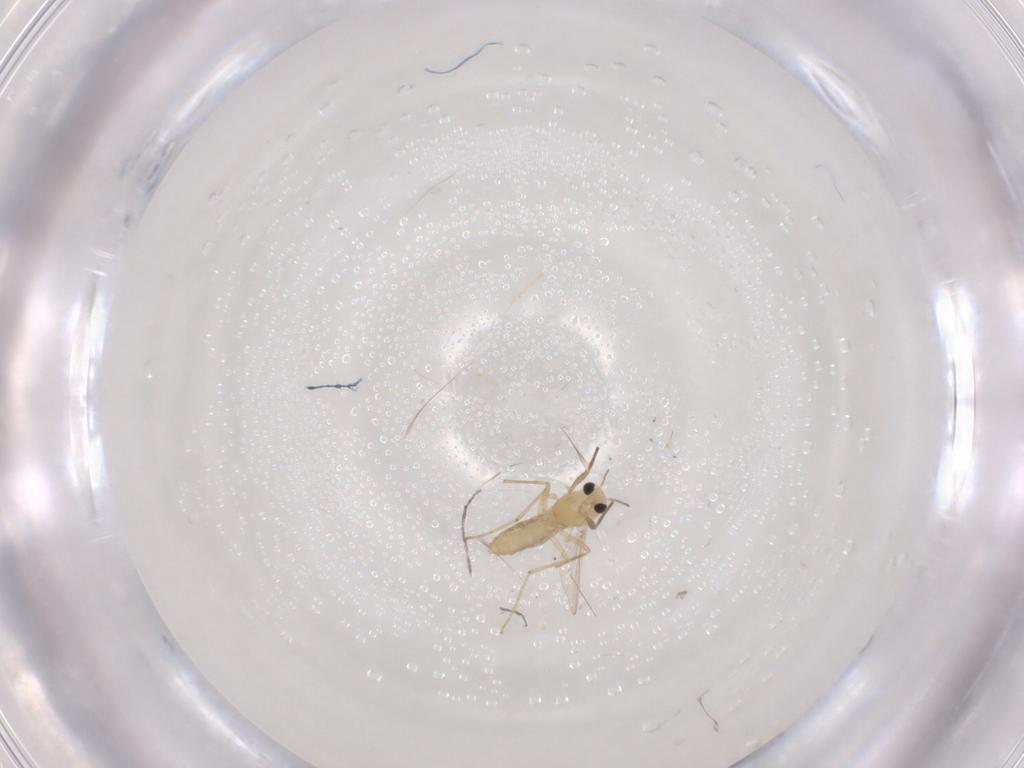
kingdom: Animalia
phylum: Arthropoda
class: Insecta
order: Diptera
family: Chironomidae
